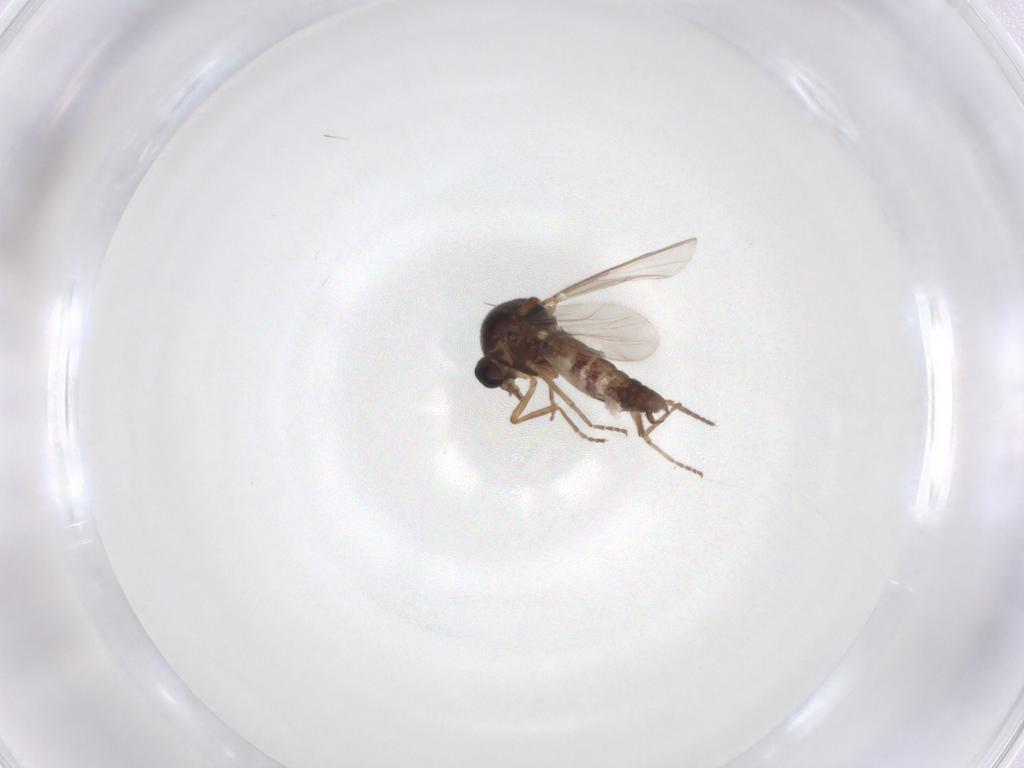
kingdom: Animalia
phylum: Arthropoda
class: Insecta
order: Diptera
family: Ceratopogonidae
